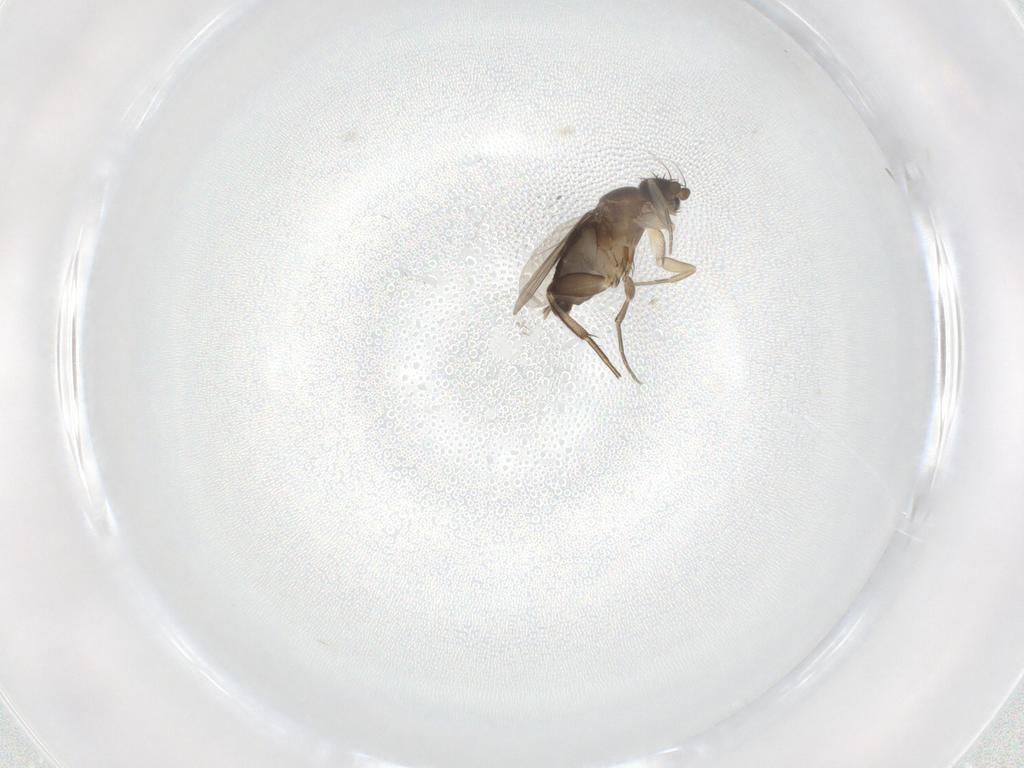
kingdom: Animalia
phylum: Arthropoda
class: Insecta
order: Diptera
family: Phoridae
